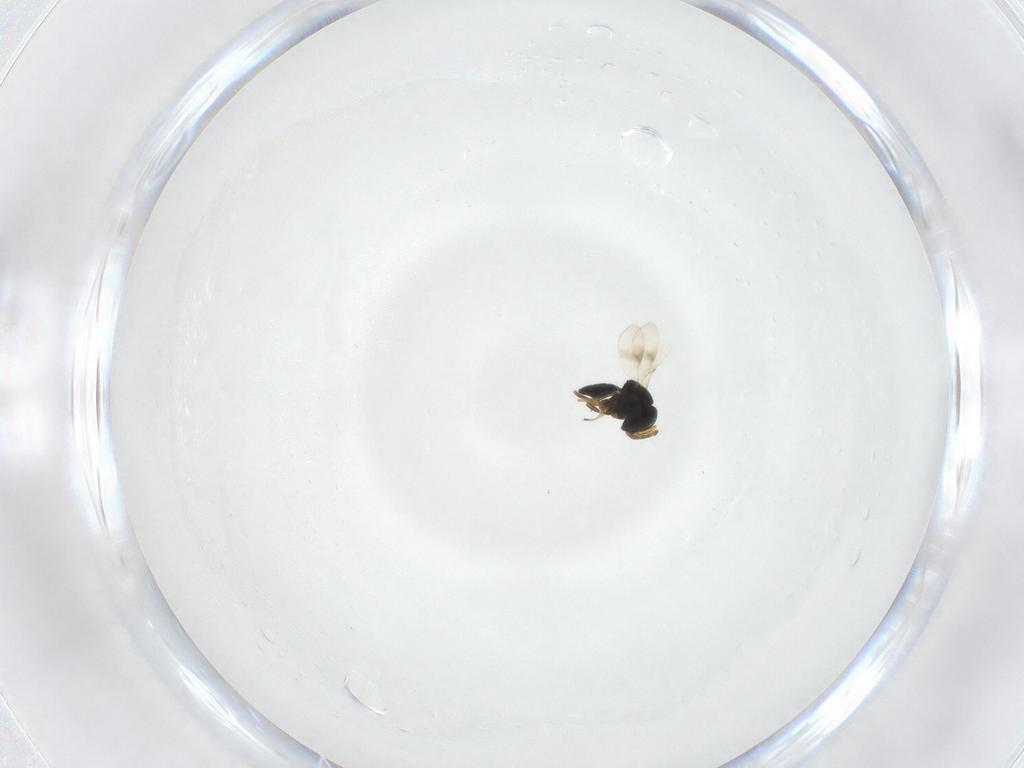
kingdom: Animalia
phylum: Arthropoda
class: Insecta
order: Hymenoptera
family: Scelionidae
